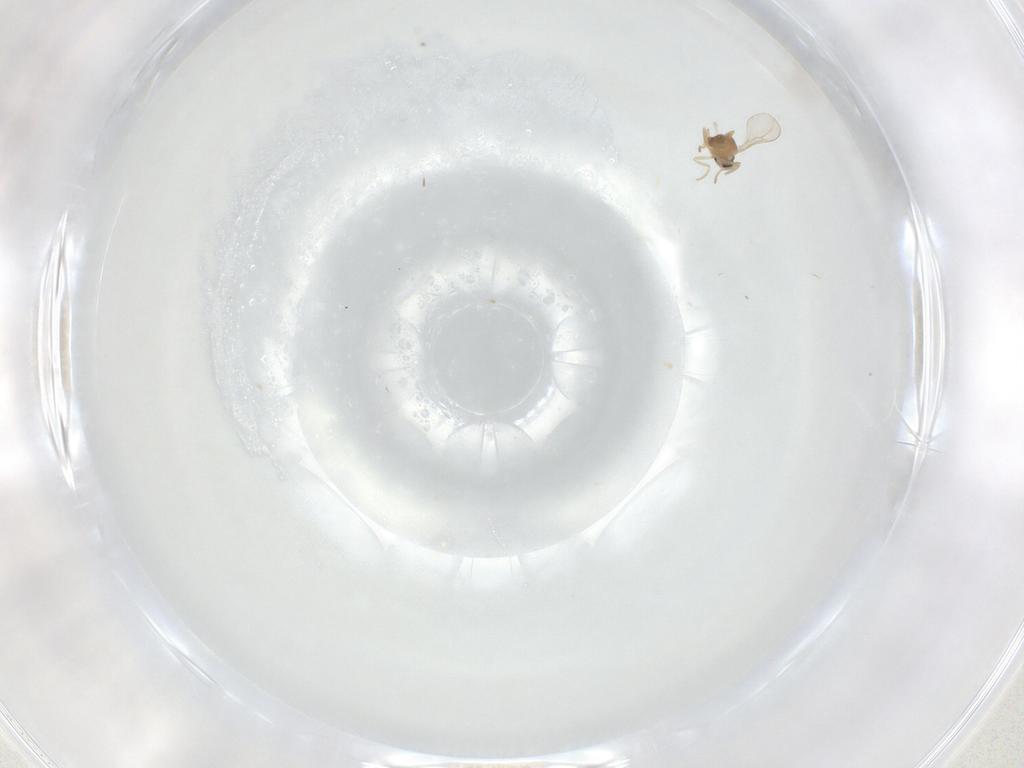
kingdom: Animalia
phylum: Arthropoda
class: Insecta
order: Diptera
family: Cecidomyiidae
